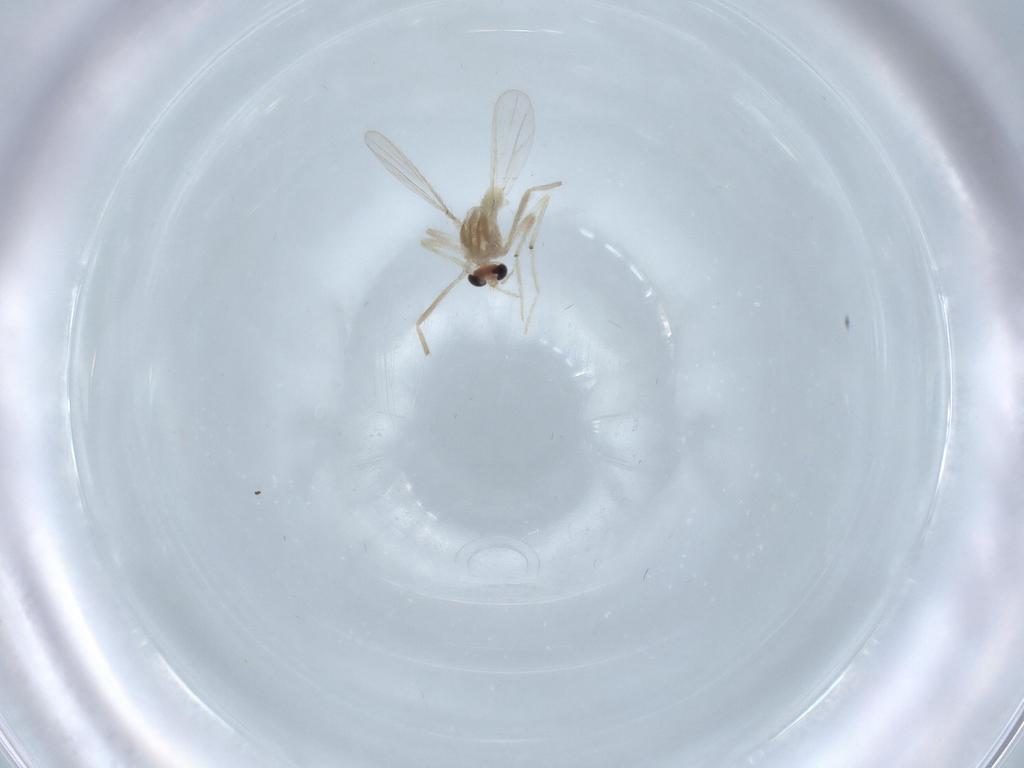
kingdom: Animalia
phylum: Arthropoda
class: Insecta
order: Diptera
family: Chironomidae
